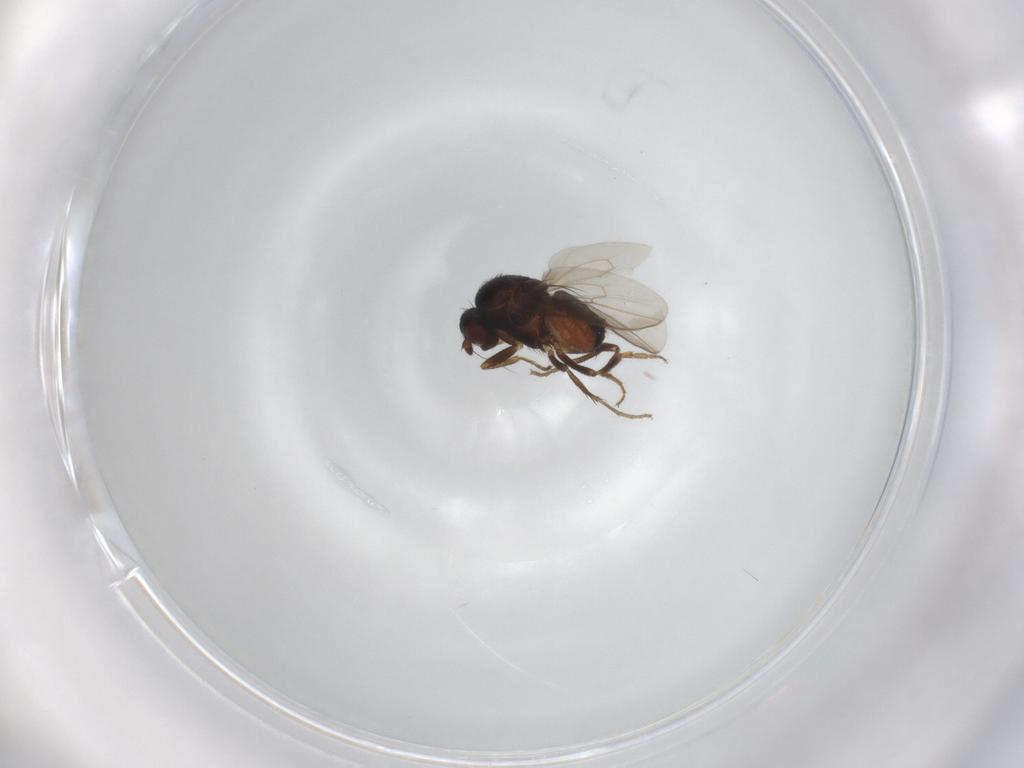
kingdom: Animalia
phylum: Arthropoda
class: Insecta
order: Diptera
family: Sphaeroceridae
